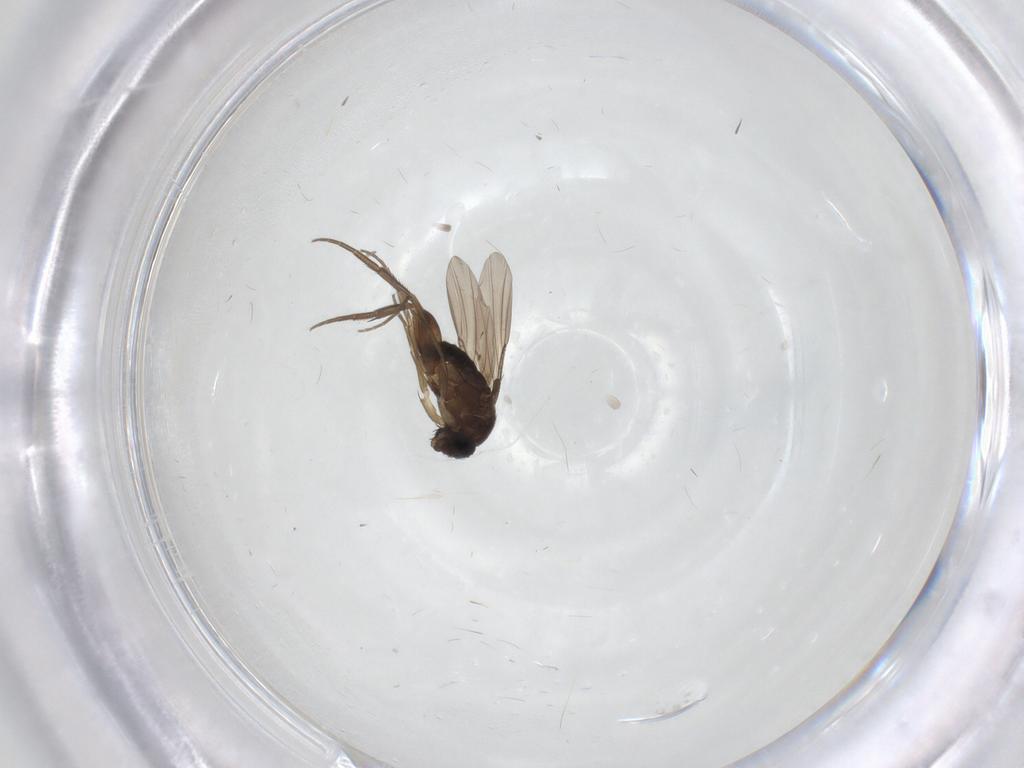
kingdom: Animalia
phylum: Arthropoda
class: Insecta
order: Diptera
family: Phoridae
